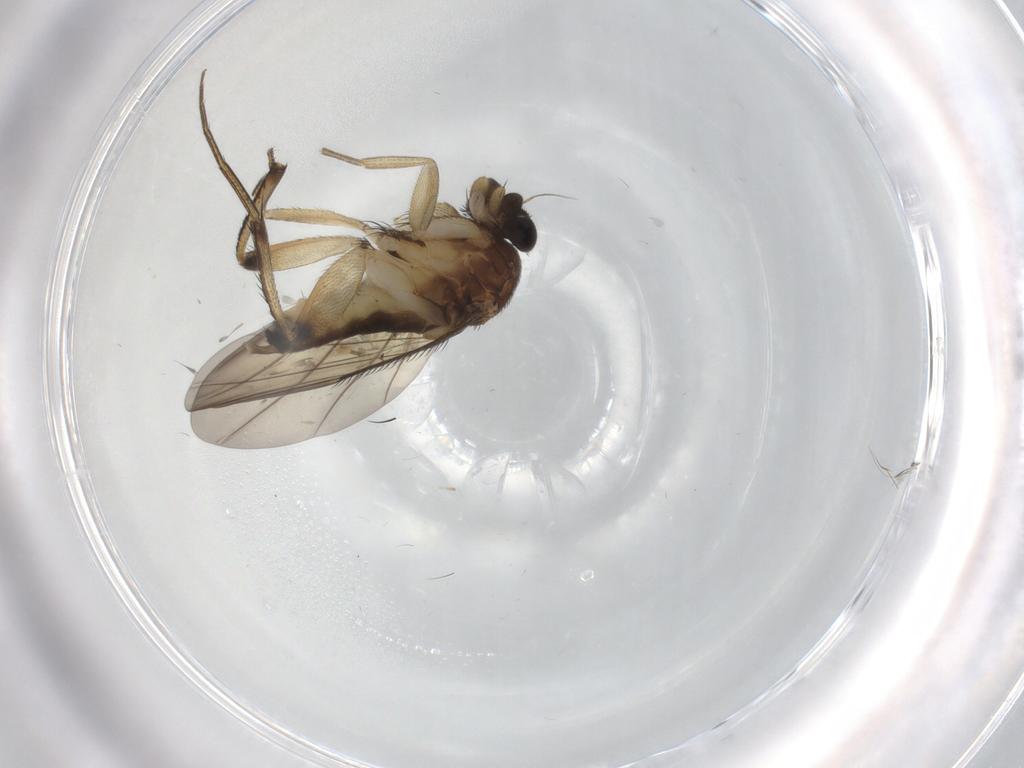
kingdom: Animalia
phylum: Arthropoda
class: Insecta
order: Diptera
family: Phoridae
